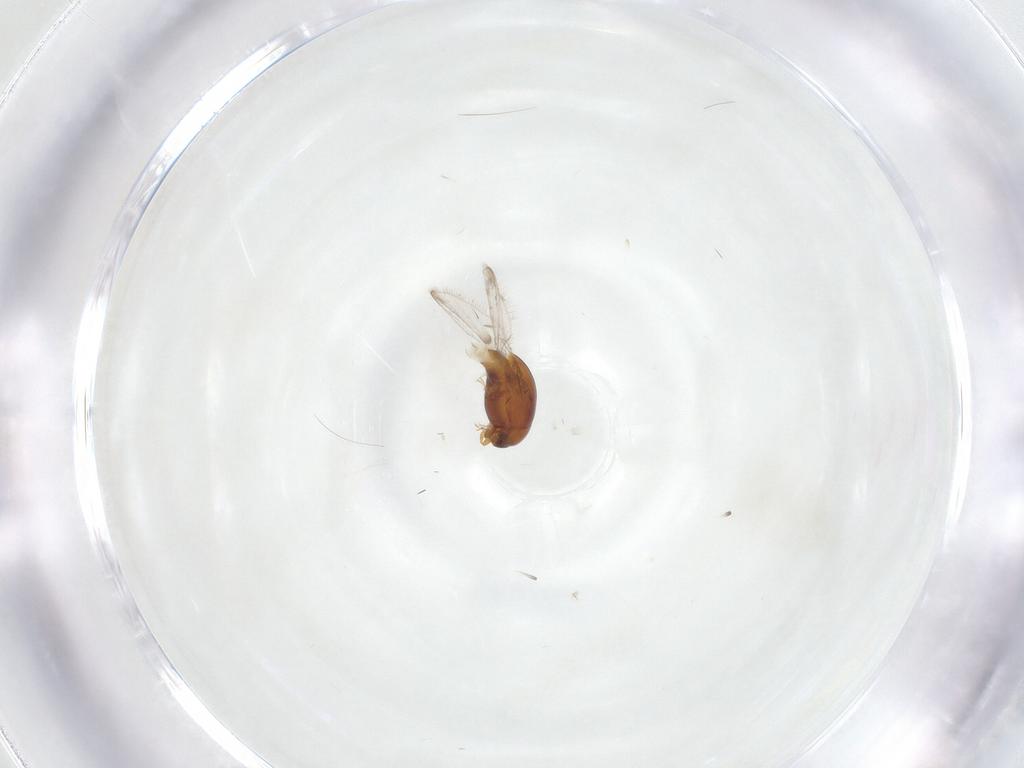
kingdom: Animalia
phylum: Arthropoda
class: Insecta
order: Coleoptera
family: Corylophidae
